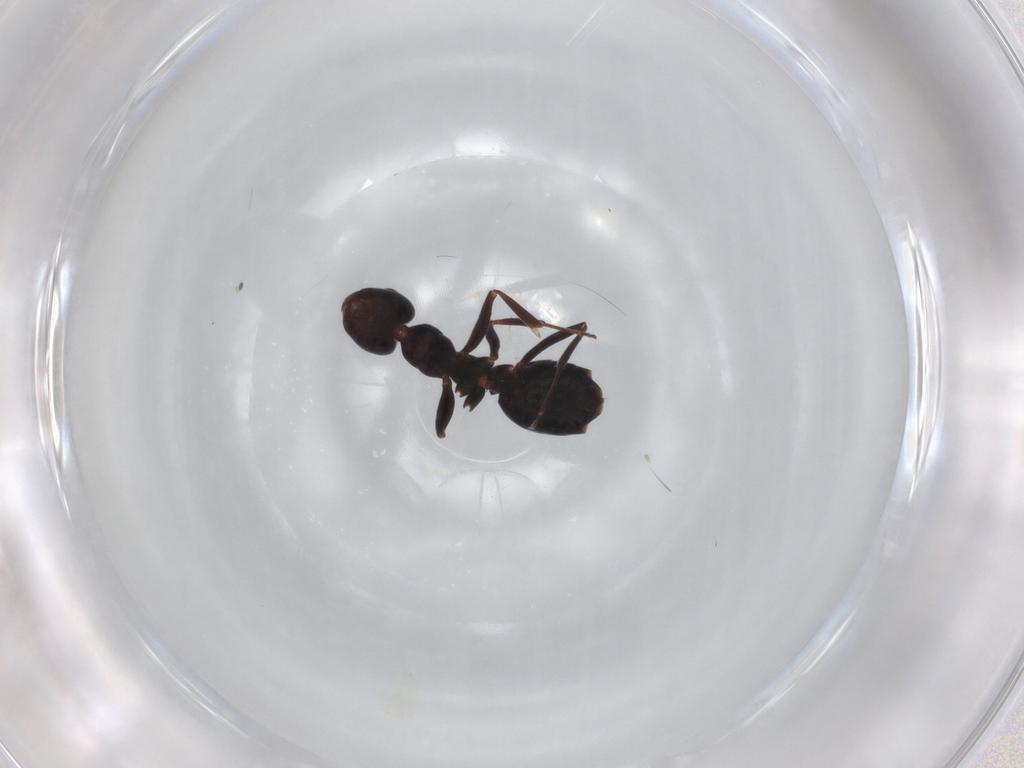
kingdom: Animalia
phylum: Arthropoda
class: Insecta
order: Hymenoptera
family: Formicidae
